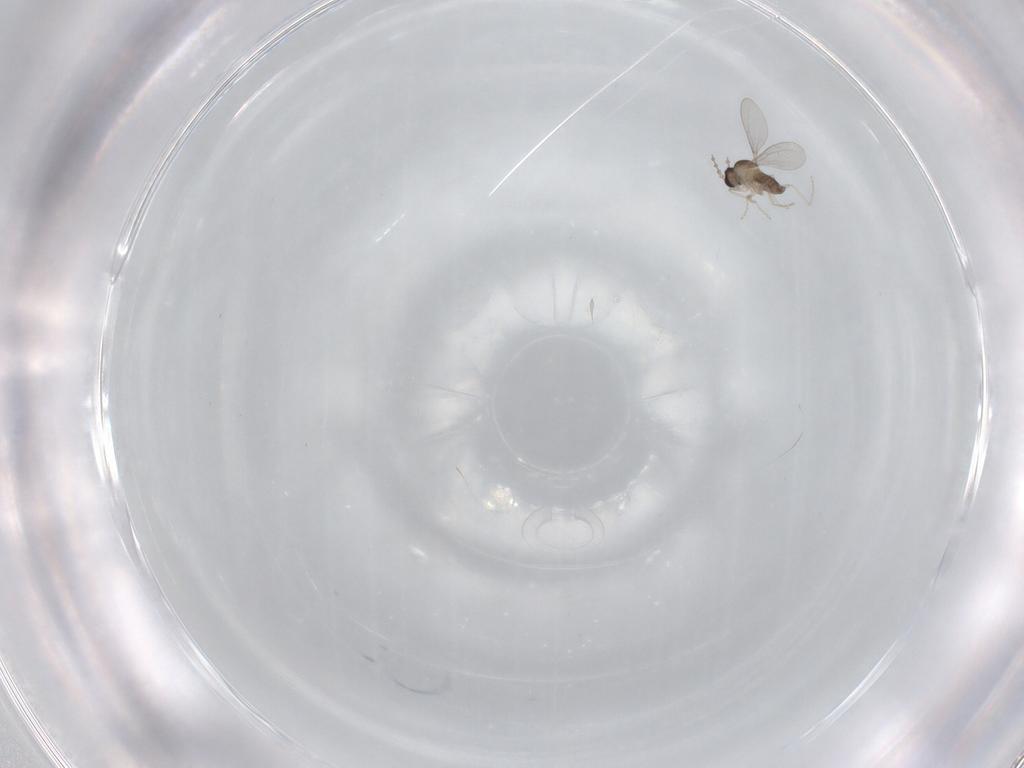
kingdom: Animalia
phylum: Arthropoda
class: Insecta
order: Diptera
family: Cecidomyiidae
